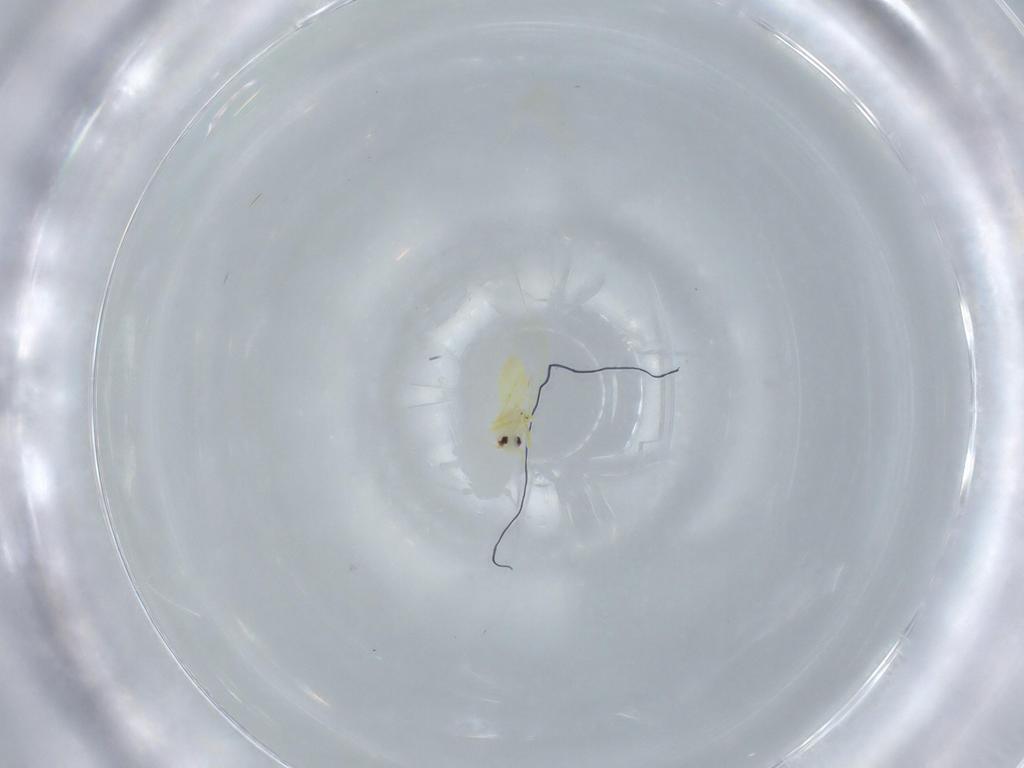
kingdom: Animalia
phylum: Arthropoda
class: Insecta
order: Hemiptera
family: Aleyrodidae
